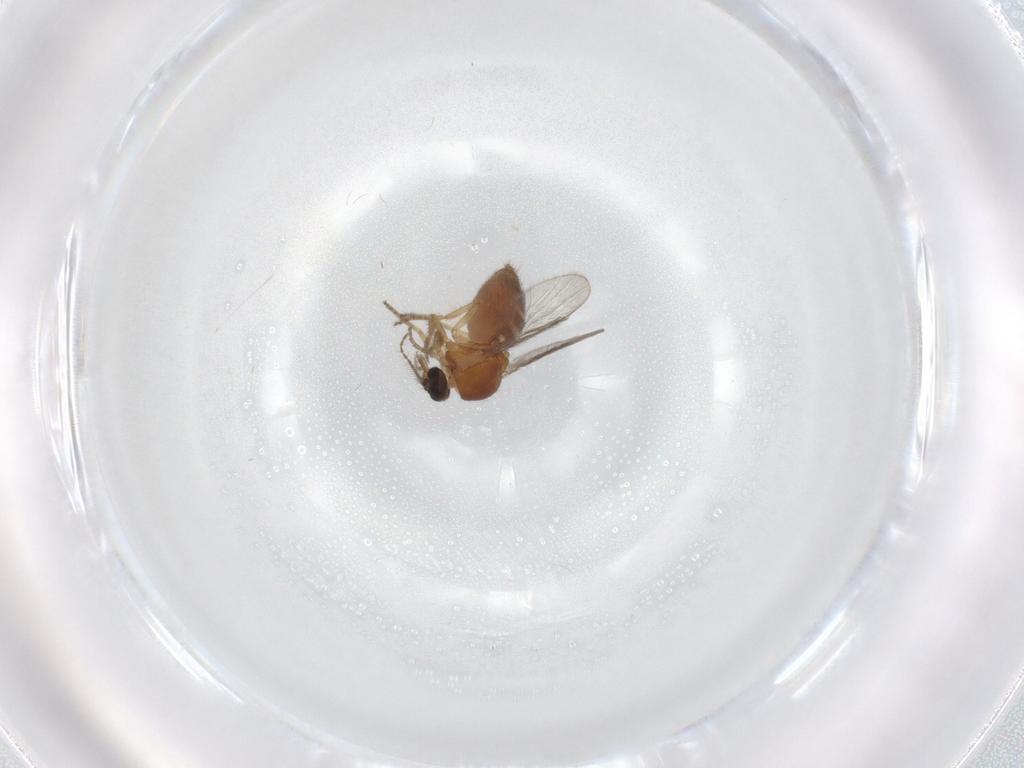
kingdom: Animalia
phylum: Arthropoda
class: Insecta
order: Diptera
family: Ceratopogonidae
